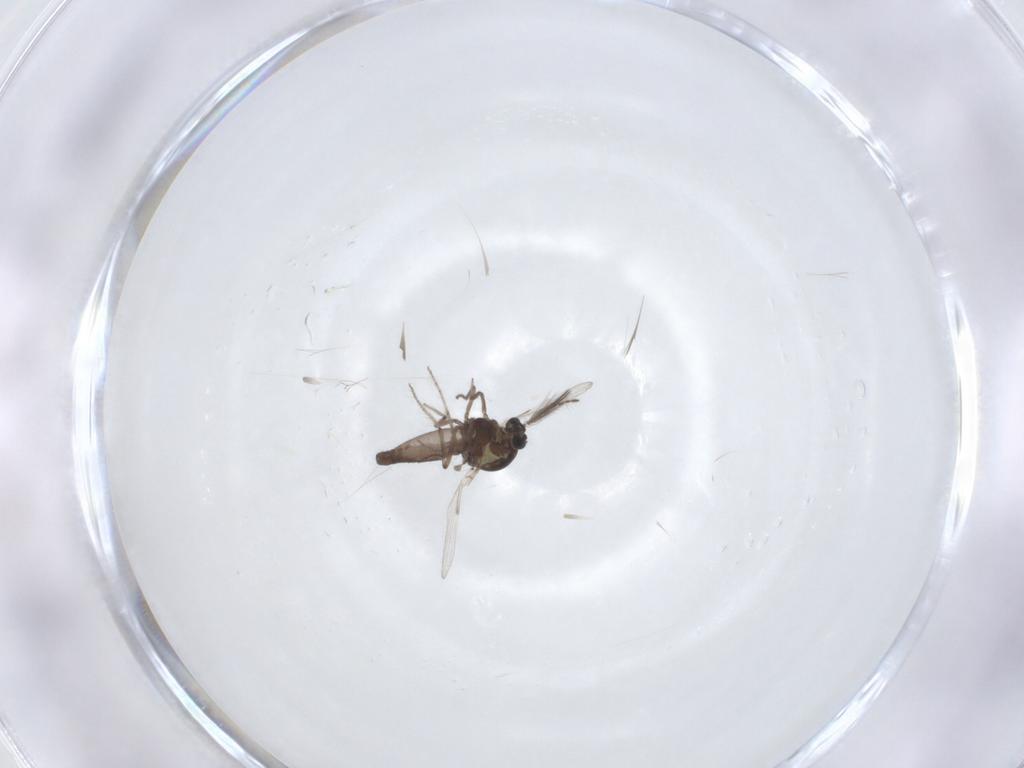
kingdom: Animalia
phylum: Arthropoda
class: Insecta
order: Diptera
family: Ceratopogonidae
